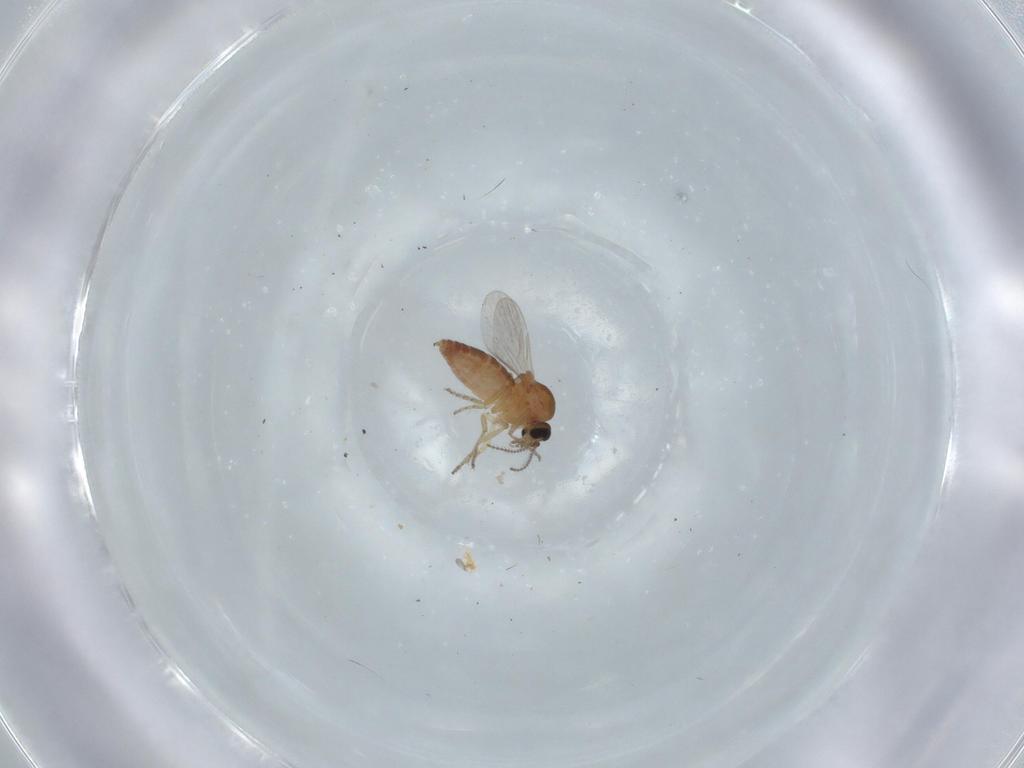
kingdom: Animalia
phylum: Arthropoda
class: Insecta
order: Diptera
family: Ceratopogonidae
